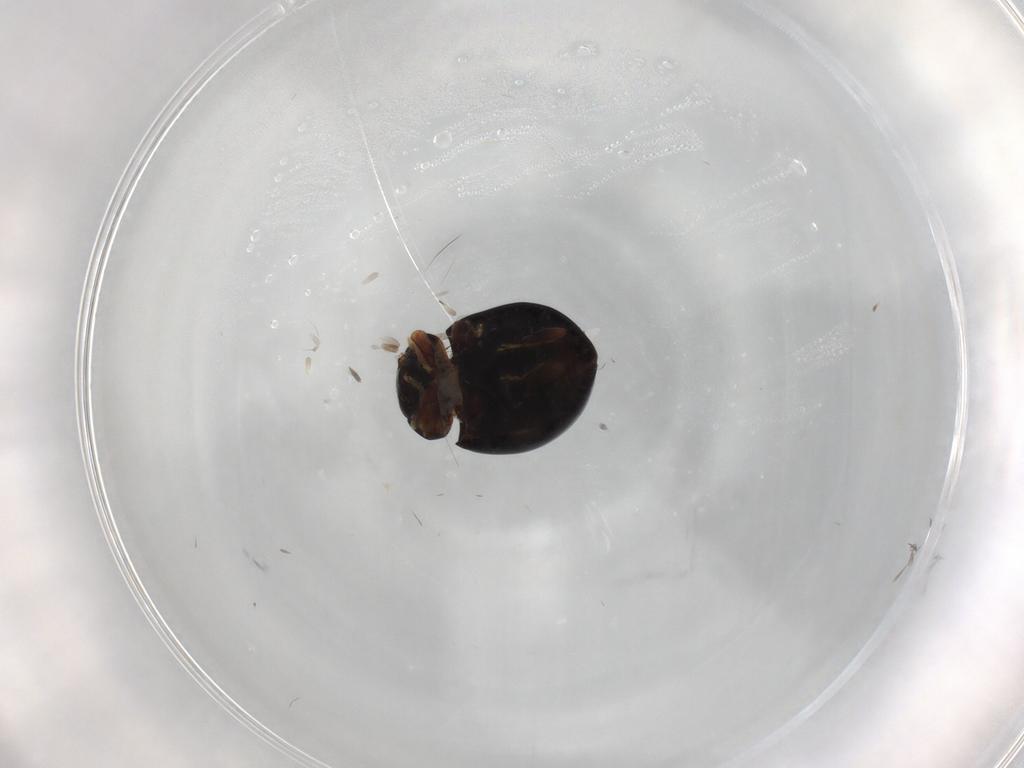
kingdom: Animalia
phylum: Arthropoda
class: Insecta
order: Coleoptera
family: Coccinellidae
